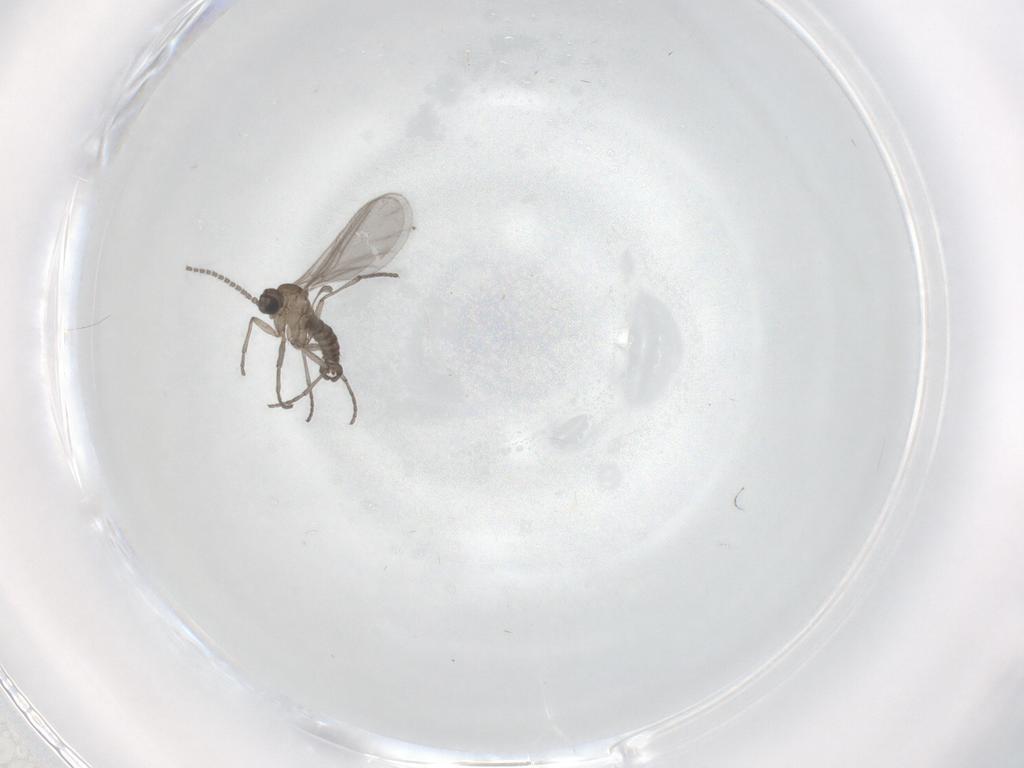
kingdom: Animalia
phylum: Arthropoda
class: Insecta
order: Diptera
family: Sciaridae
